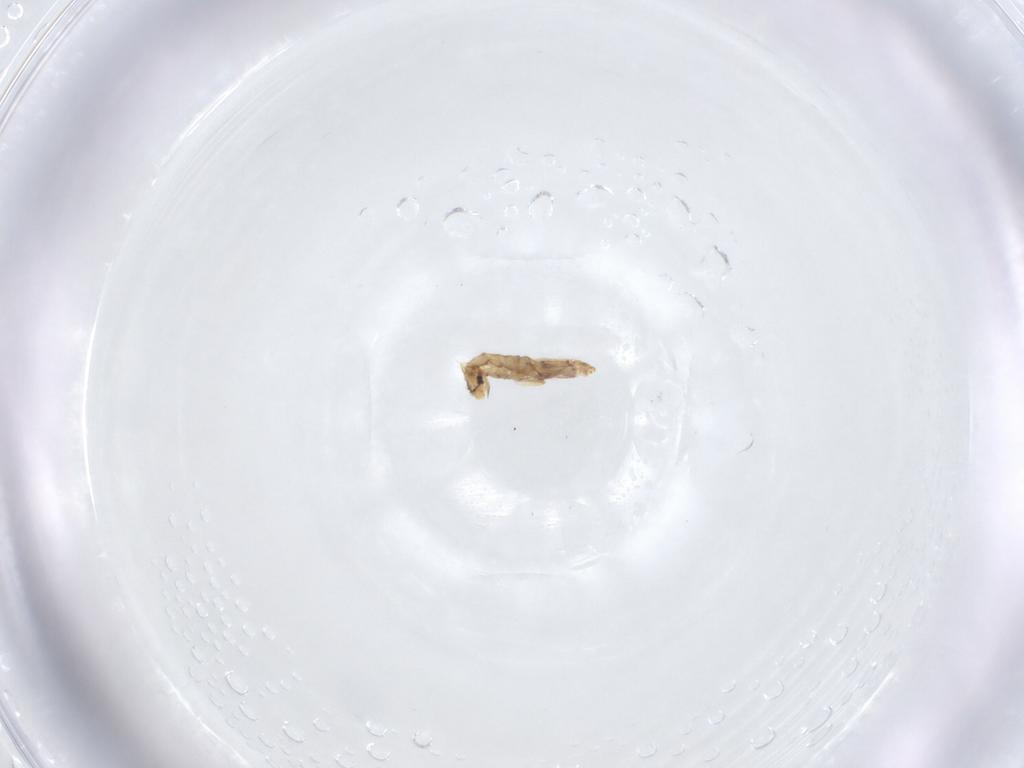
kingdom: Animalia
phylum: Arthropoda
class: Collembola
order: Entomobryomorpha
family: Entomobryidae
